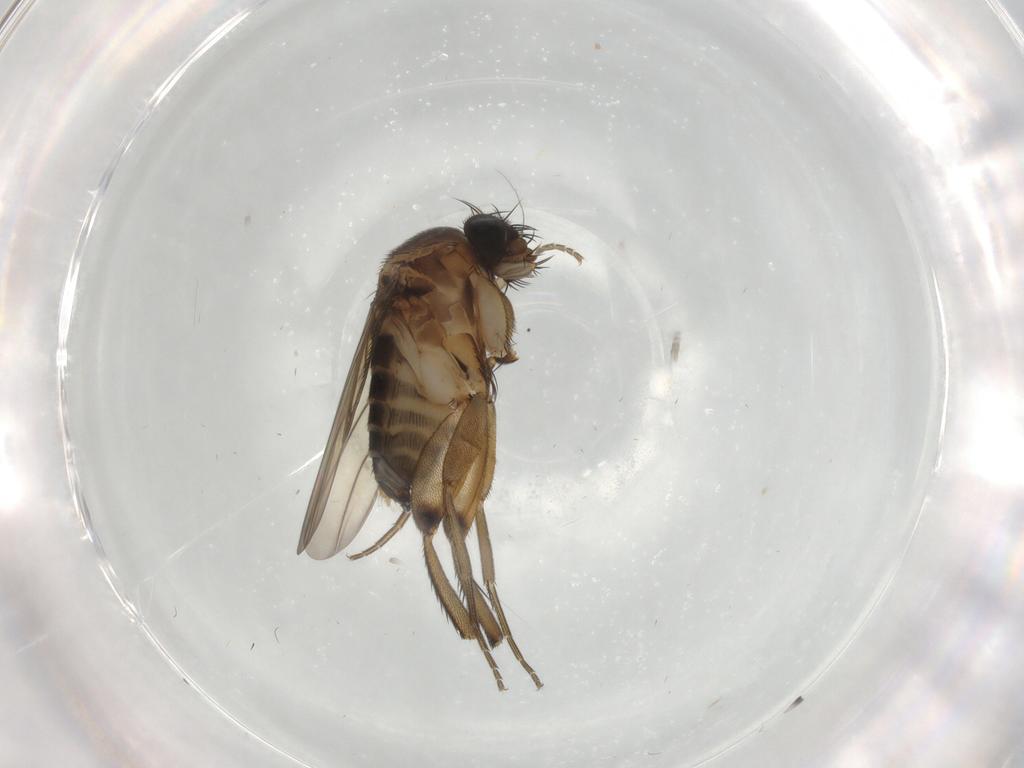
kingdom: Animalia
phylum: Arthropoda
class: Insecta
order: Diptera
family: Phoridae
